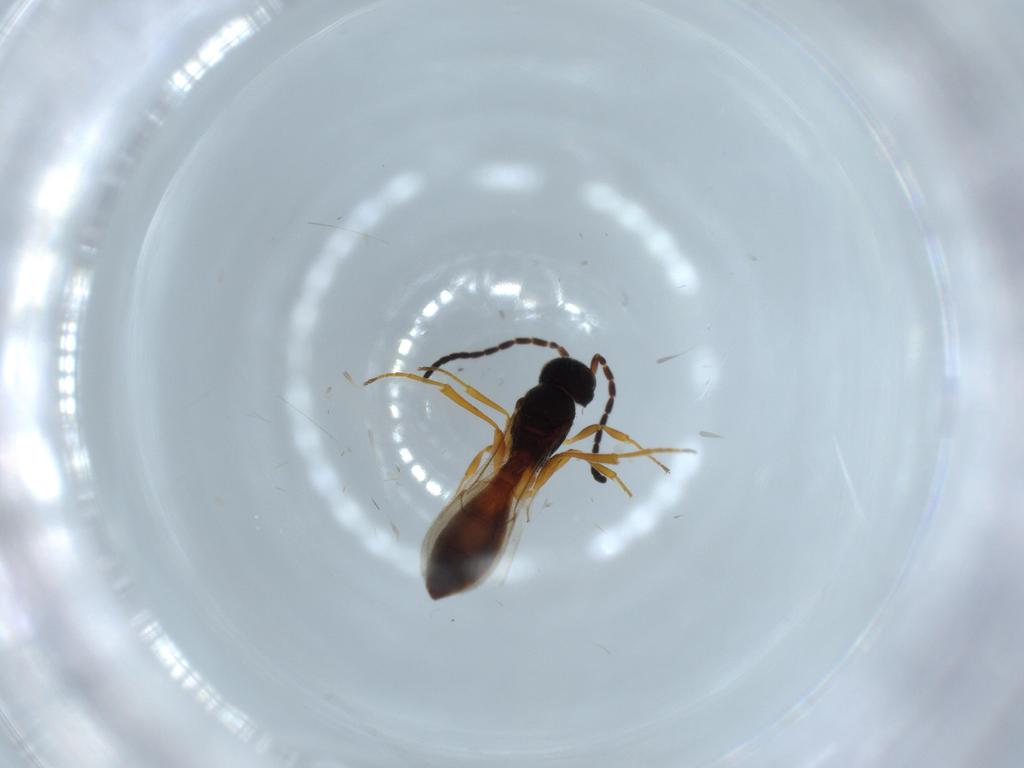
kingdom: Animalia
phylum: Arthropoda
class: Insecta
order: Hymenoptera
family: Scelionidae
